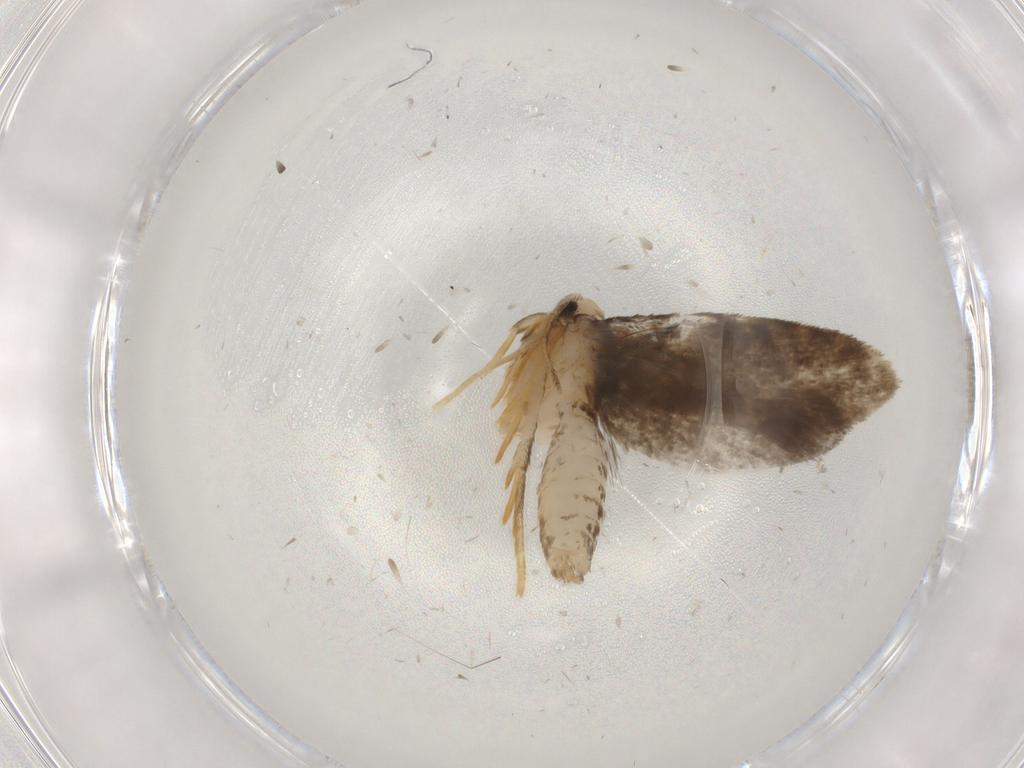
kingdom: Animalia
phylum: Arthropoda
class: Insecta
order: Lepidoptera
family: Psychidae
